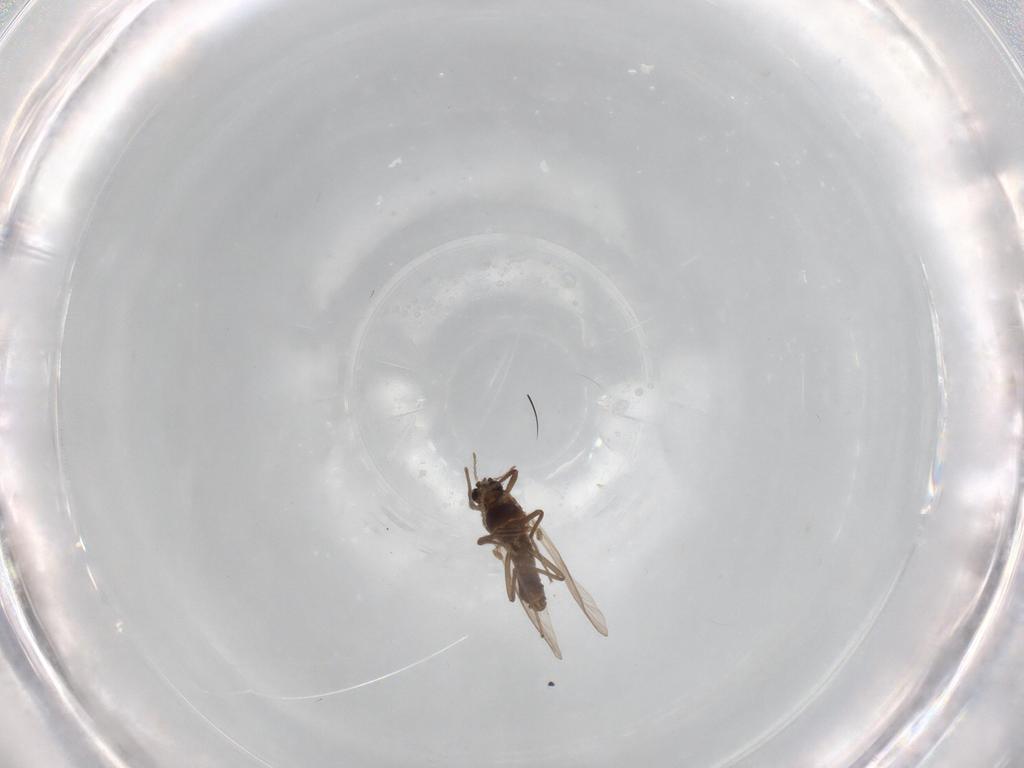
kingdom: Animalia
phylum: Arthropoda
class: Insecta
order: Diptera
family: Chironomidae
